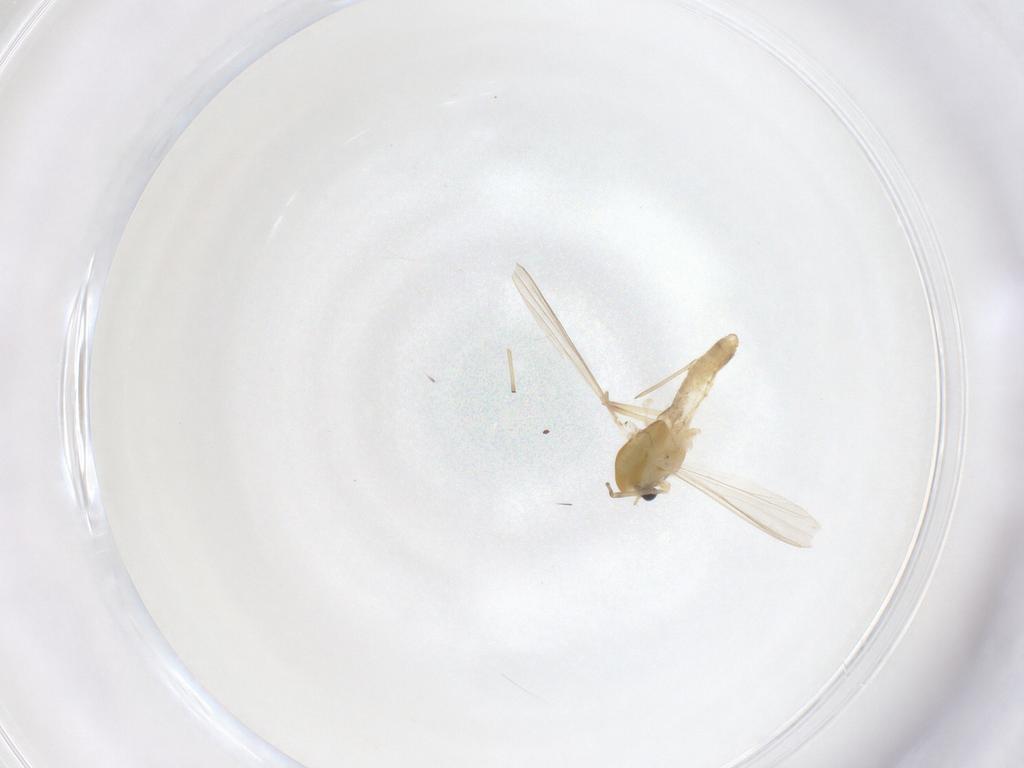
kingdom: Animalia
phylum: Arthropoda
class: Insecta
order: Diptera
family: Chironomidae
